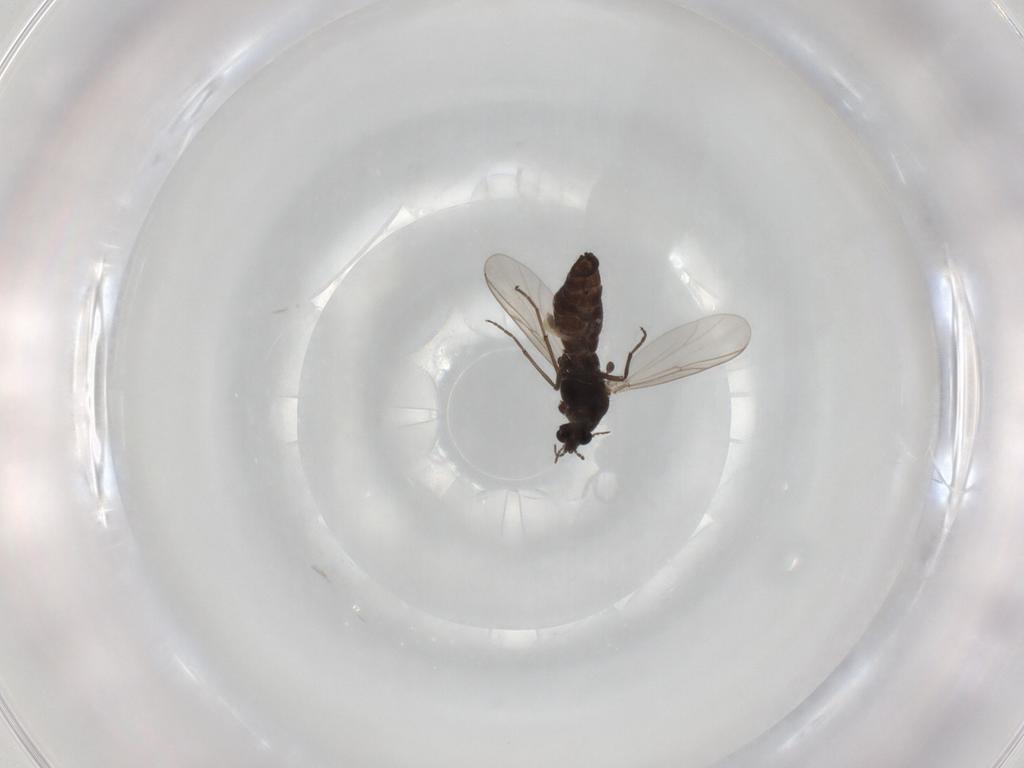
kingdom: Animalia
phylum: Arthropoda
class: Insecta
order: Diptera
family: Chironomidae
